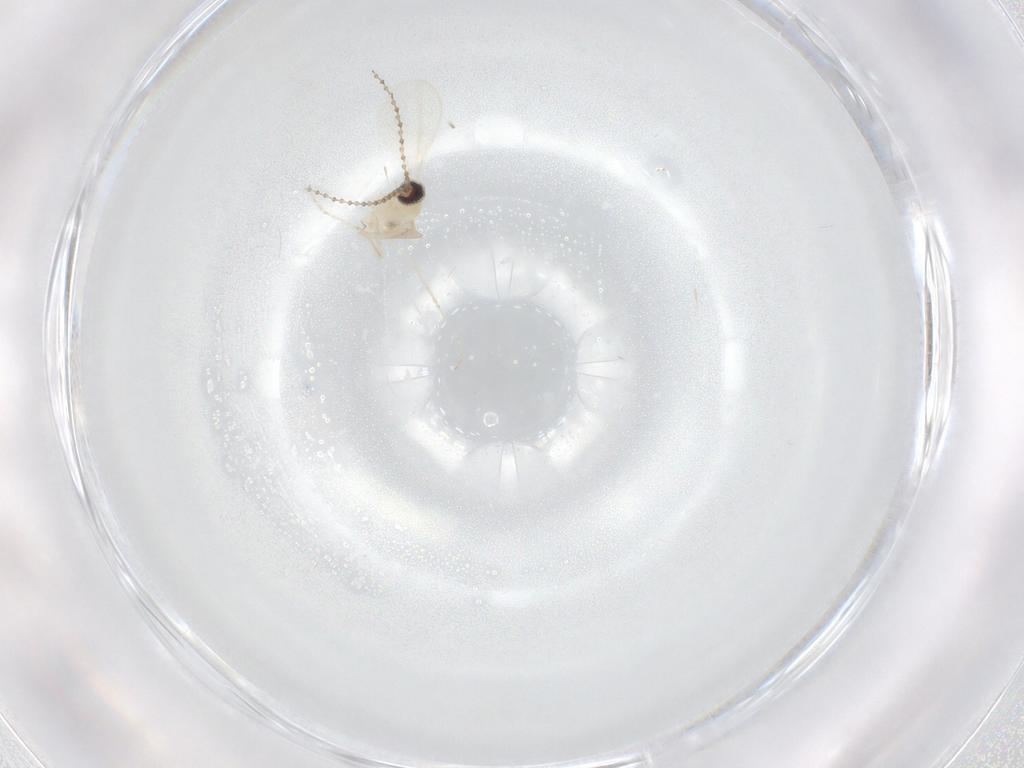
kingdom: Animalia
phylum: Arthropoda
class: Insecta
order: Diptera
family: Cecidomyiidae
